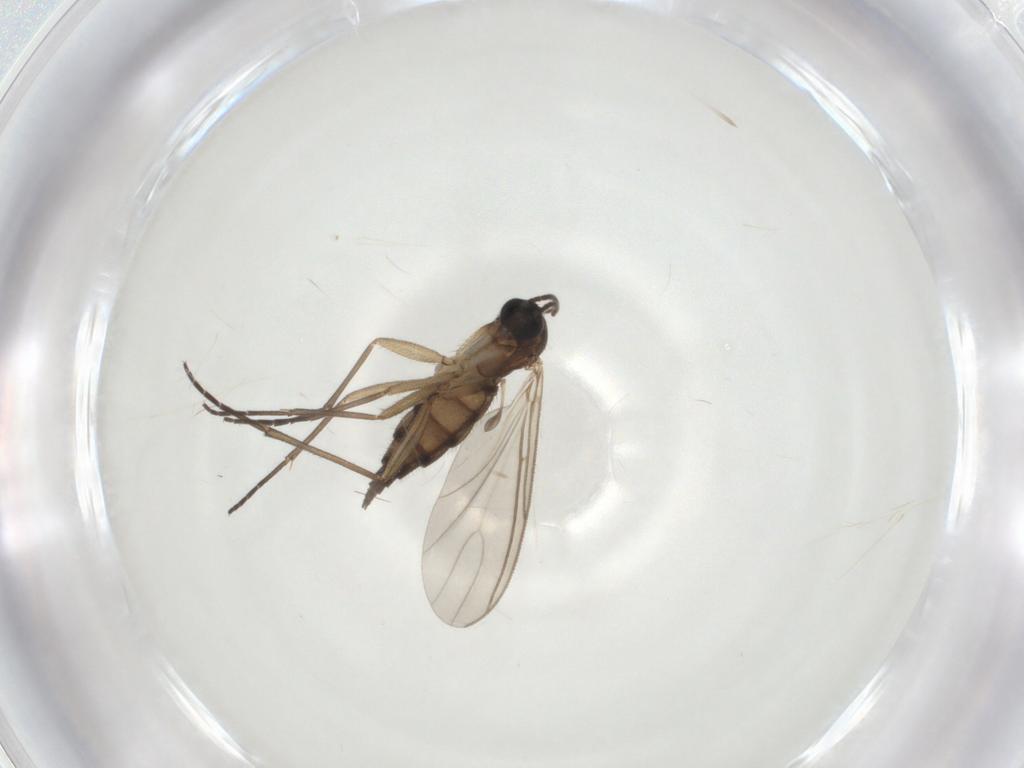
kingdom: Animalia
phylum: Arthropoda
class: Insecta
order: Diptera
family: Sciaridae
